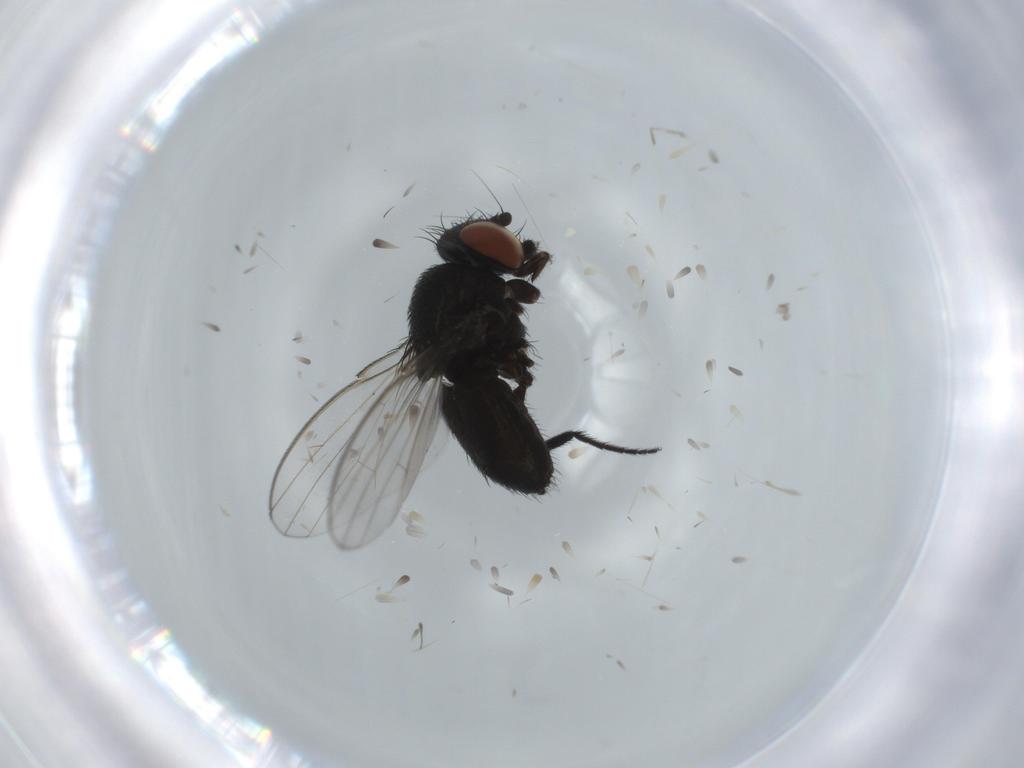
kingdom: Animalia
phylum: Arthropoda
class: Insecta
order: Diptera
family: Milichiidae
